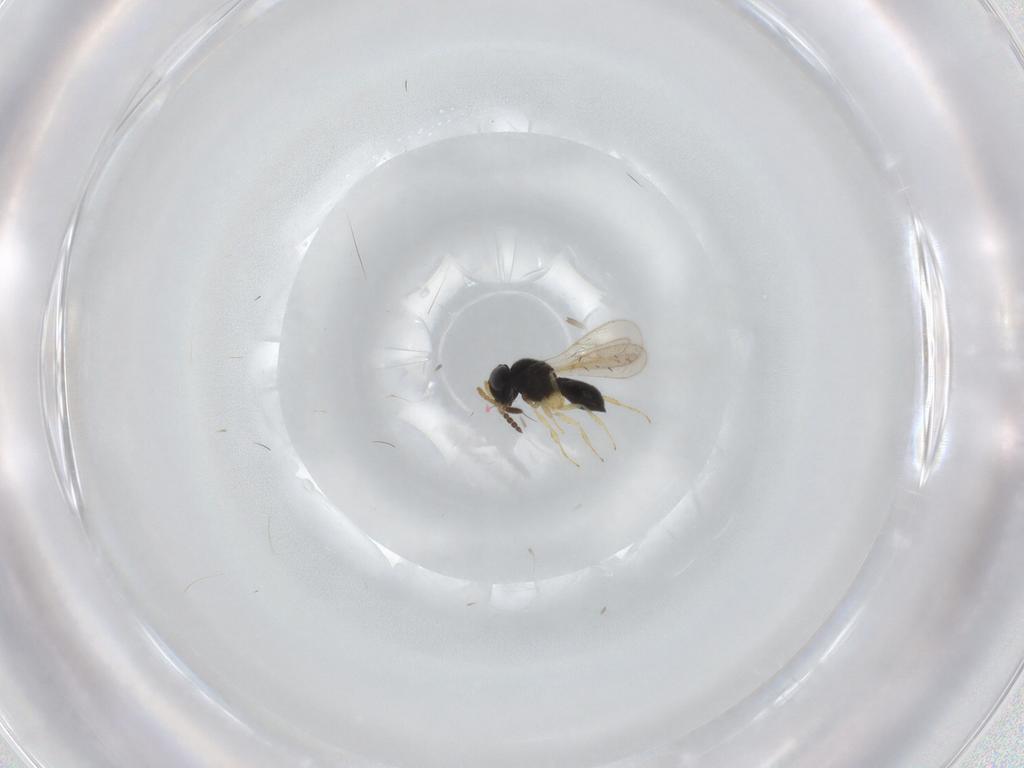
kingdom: Animalia
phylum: Arthropoda
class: Insecta
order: Hymenoptera
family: Scelionidae
